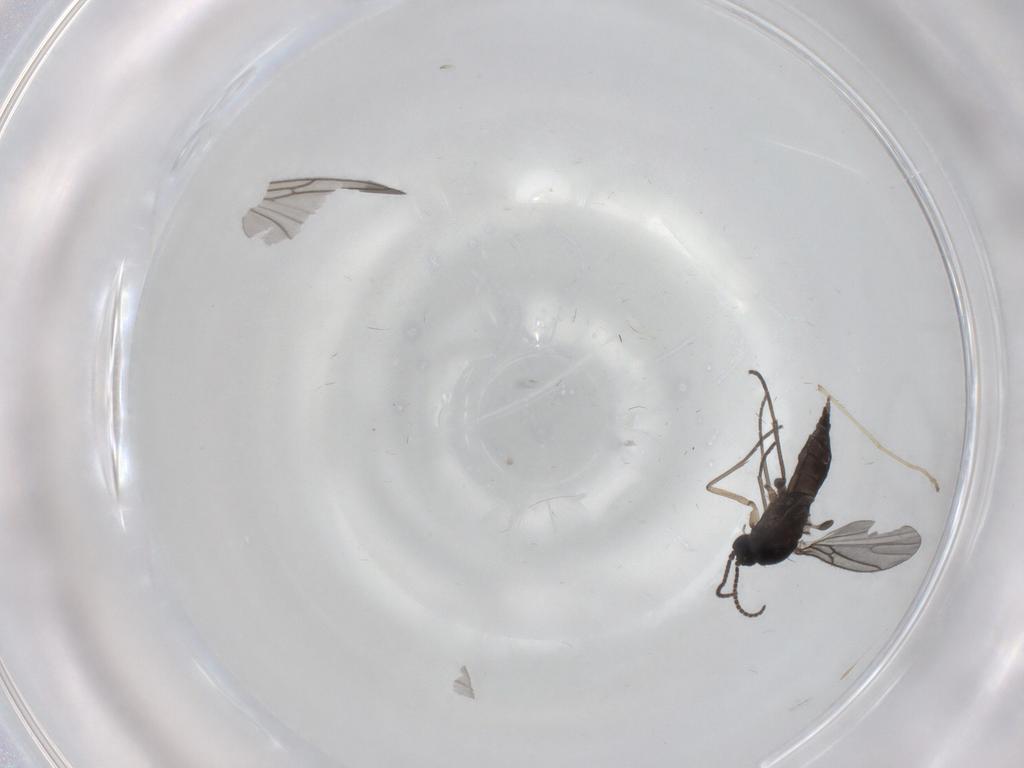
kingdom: Animalia
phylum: Arthropoda
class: Insecta
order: Diptera
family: Sciaridae
